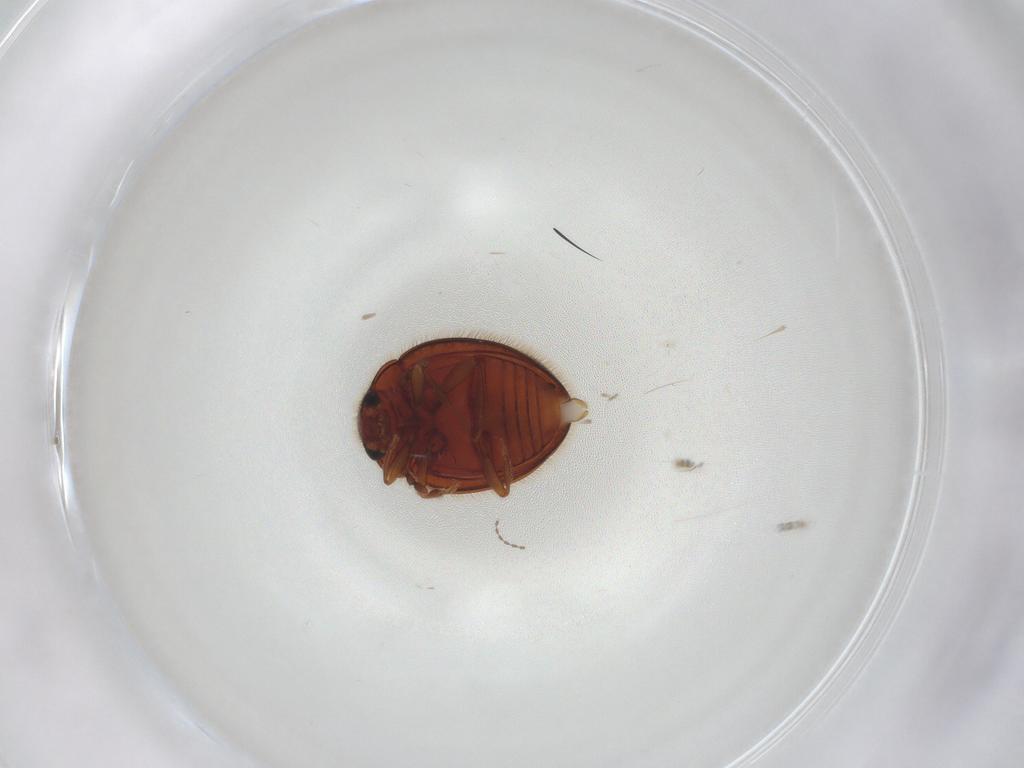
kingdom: Animalia
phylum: Arthropoda
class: Insecta
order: Coleoptera
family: Anamorphidae
